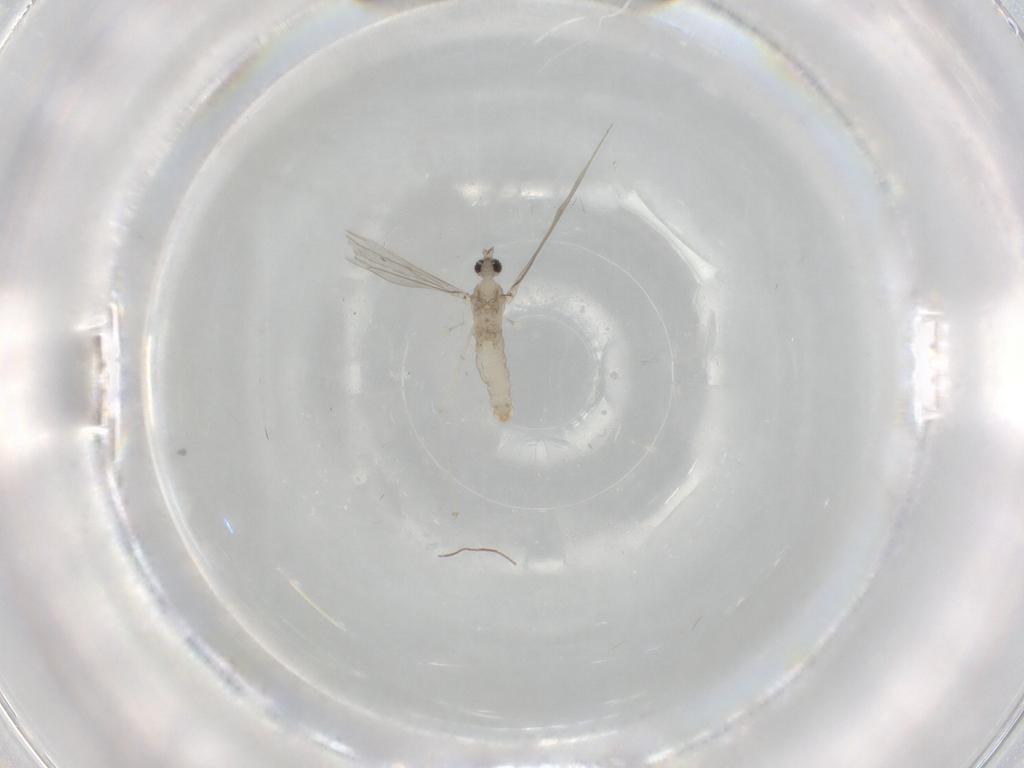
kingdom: Animalia
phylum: Arthropoda
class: Insecta
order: Diptera
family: Cecidomyiidae
